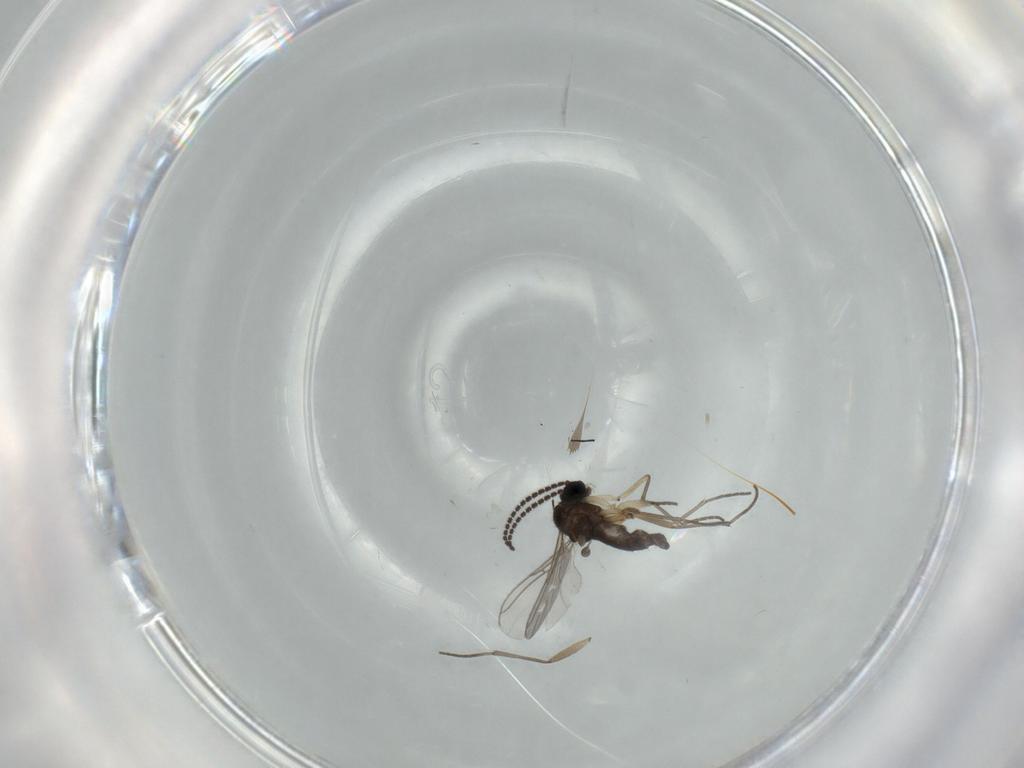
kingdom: Animalia
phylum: Arthropoda
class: Insecta
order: Diptera
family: Sciaridae
